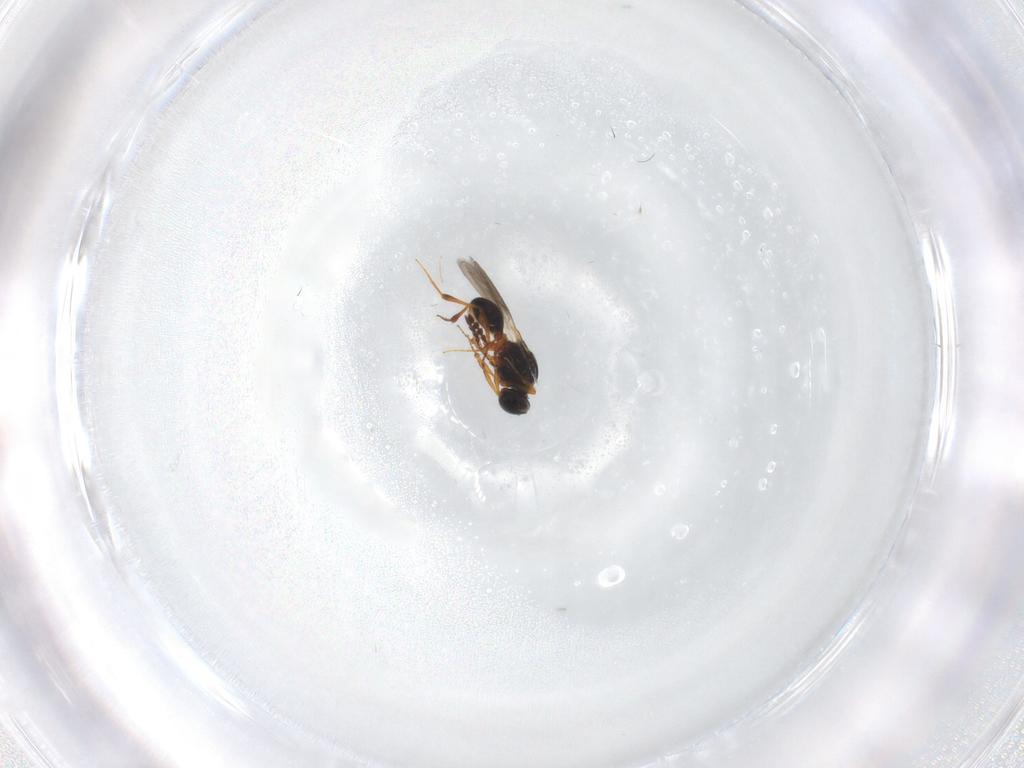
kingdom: Animalia
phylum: Arthropoda
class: Insecta
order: Hymenoptera
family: Platygastridae
